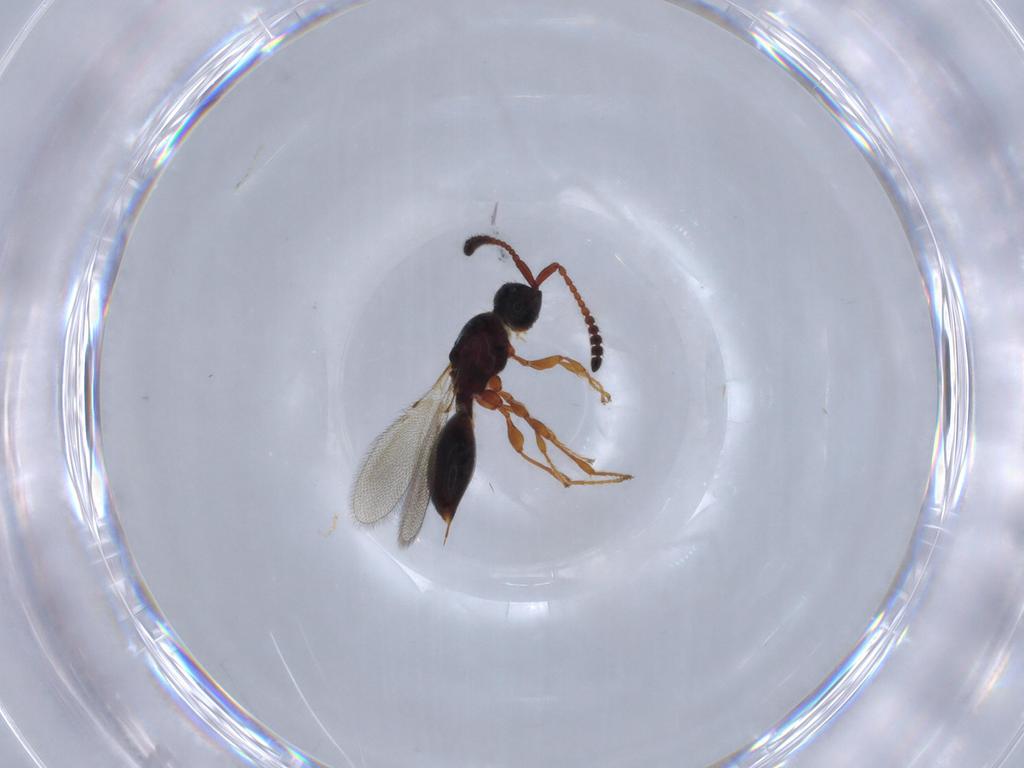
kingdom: Animalia
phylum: Arthropoda
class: Insecta
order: Hymenoptera
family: Diapriidae
